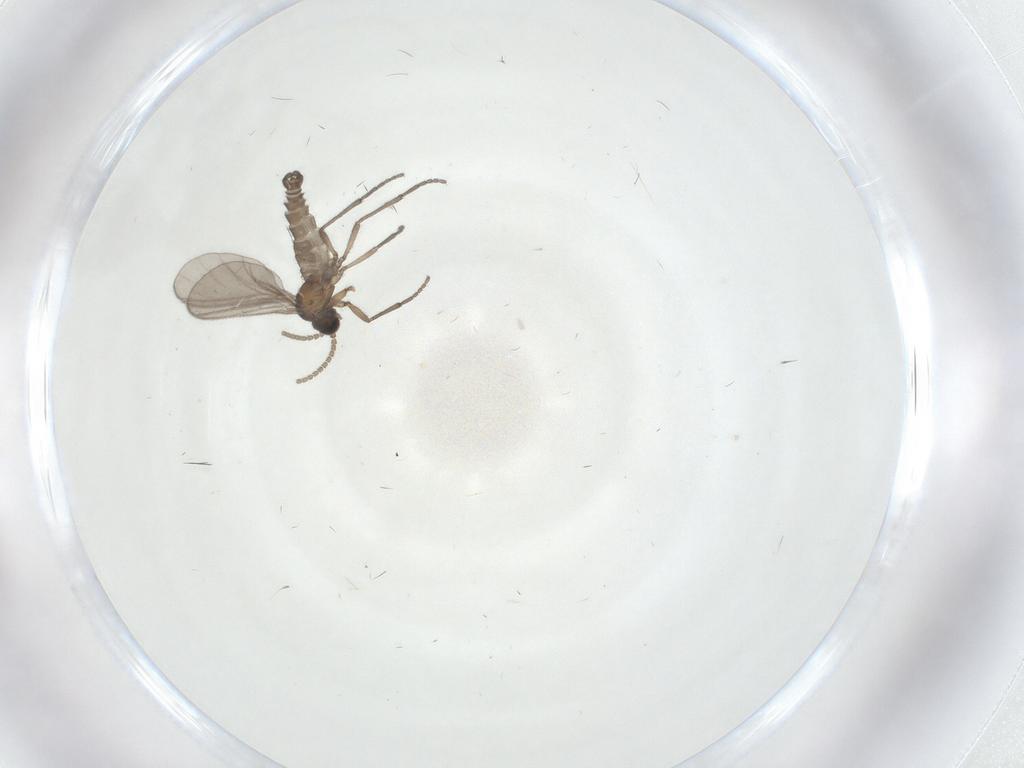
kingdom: Animalia
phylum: Arthropoda
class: Insecta
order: Diptera
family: Sciaridae
